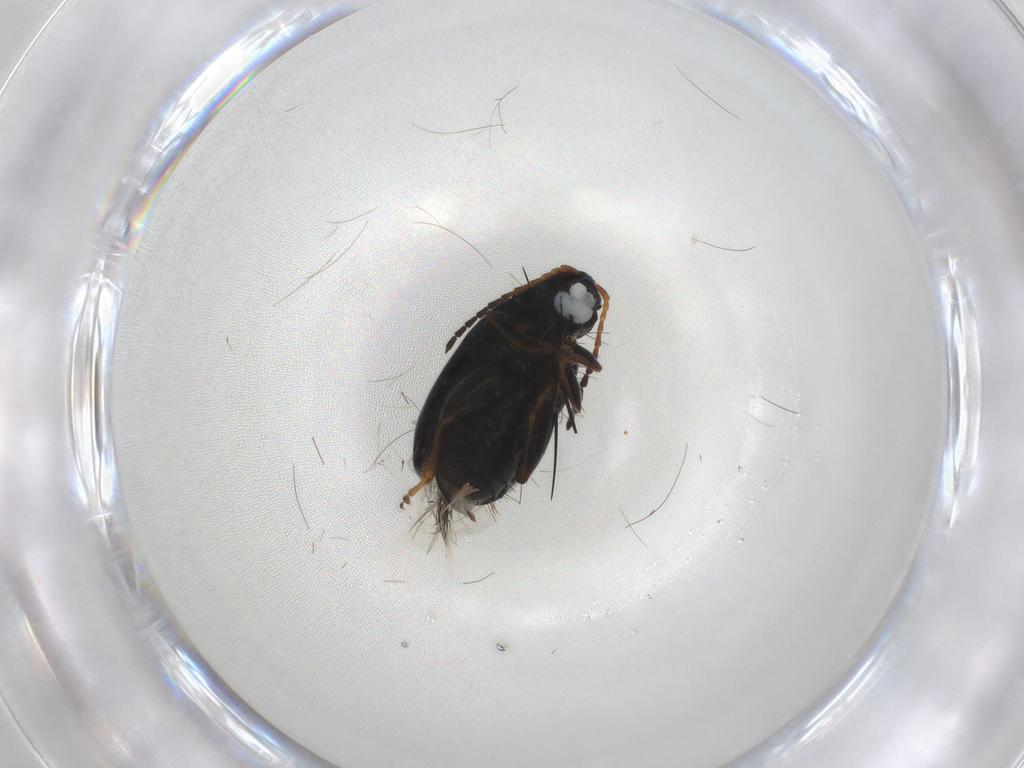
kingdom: Animalia
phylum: Arthropoda
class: Insecta
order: Coleoptera
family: Chrysomelidae
